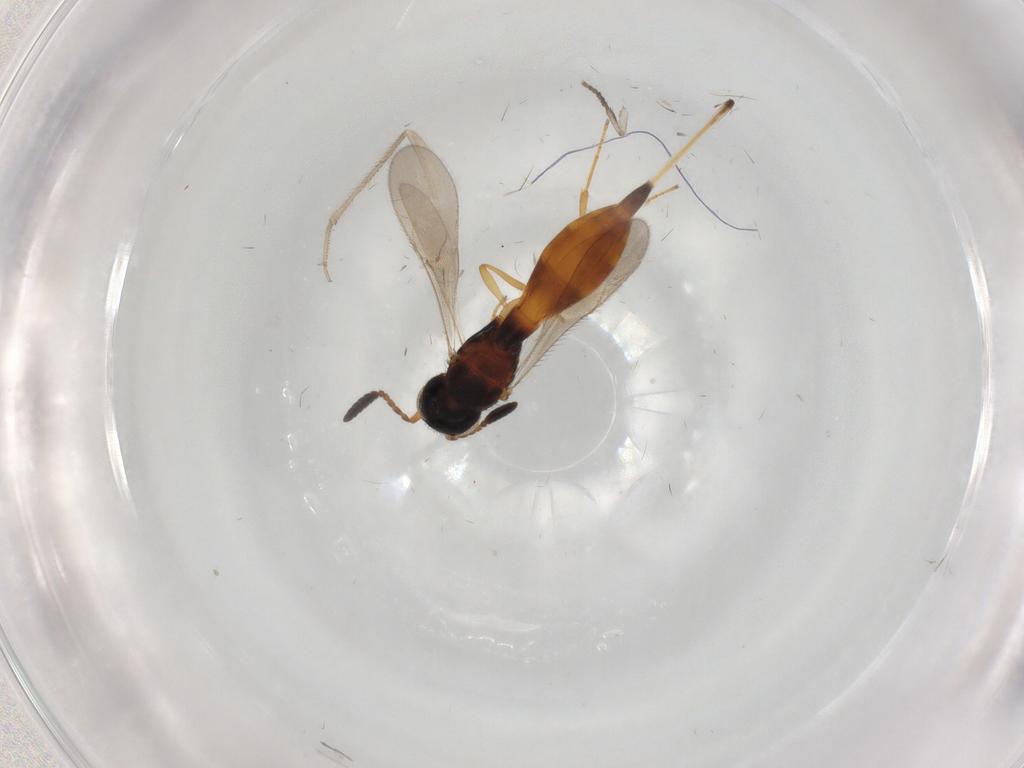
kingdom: Animalia
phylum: Arthropoda
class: Insecta
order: Hymenoptera
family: Scelionidae
